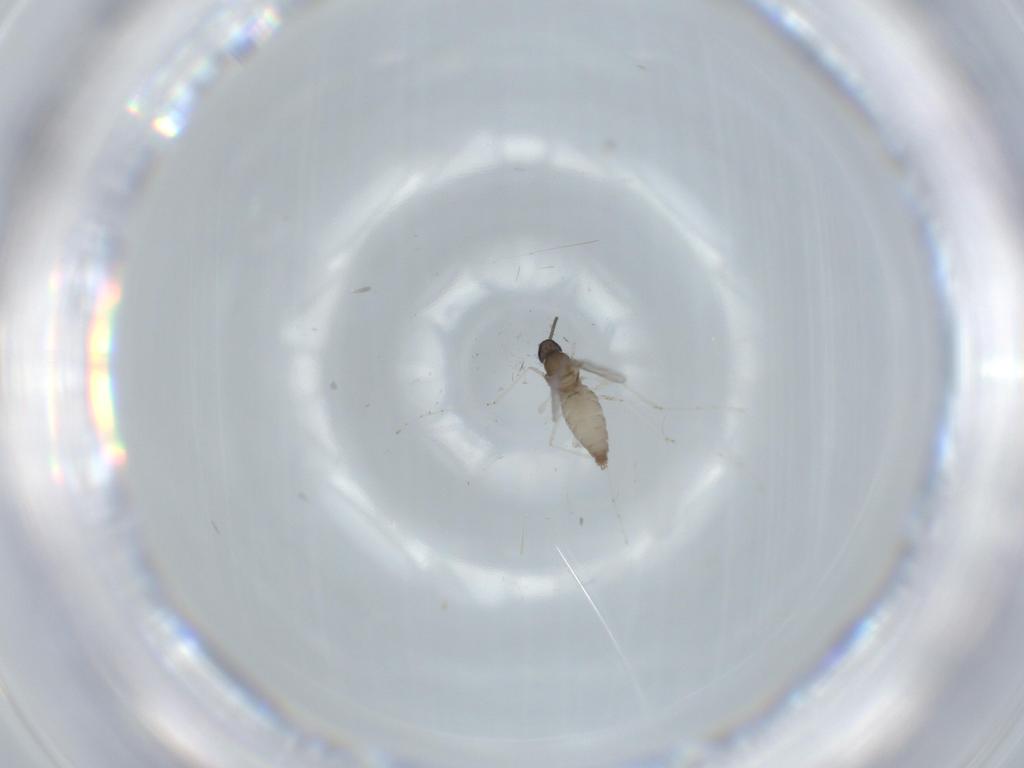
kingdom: Animalia
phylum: Arthropoda
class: Insecta
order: Diptera
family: Cecidomyiidae
